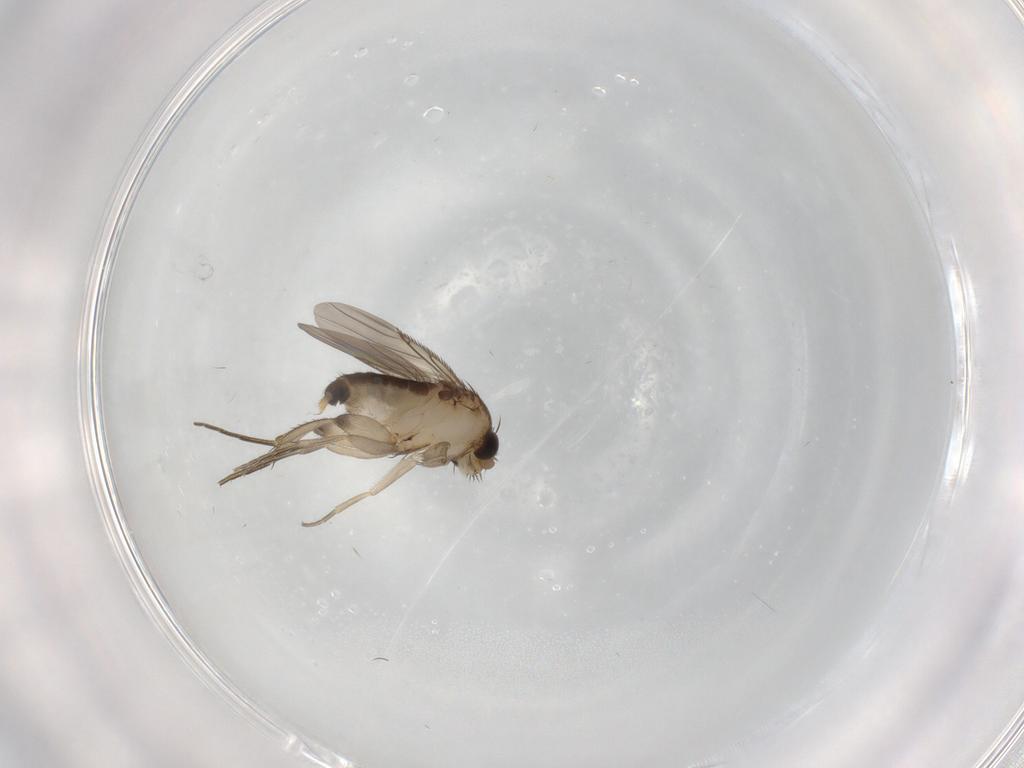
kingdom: Animalia
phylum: Arthropoda
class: Insecta
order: Diptera
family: Phoridae
